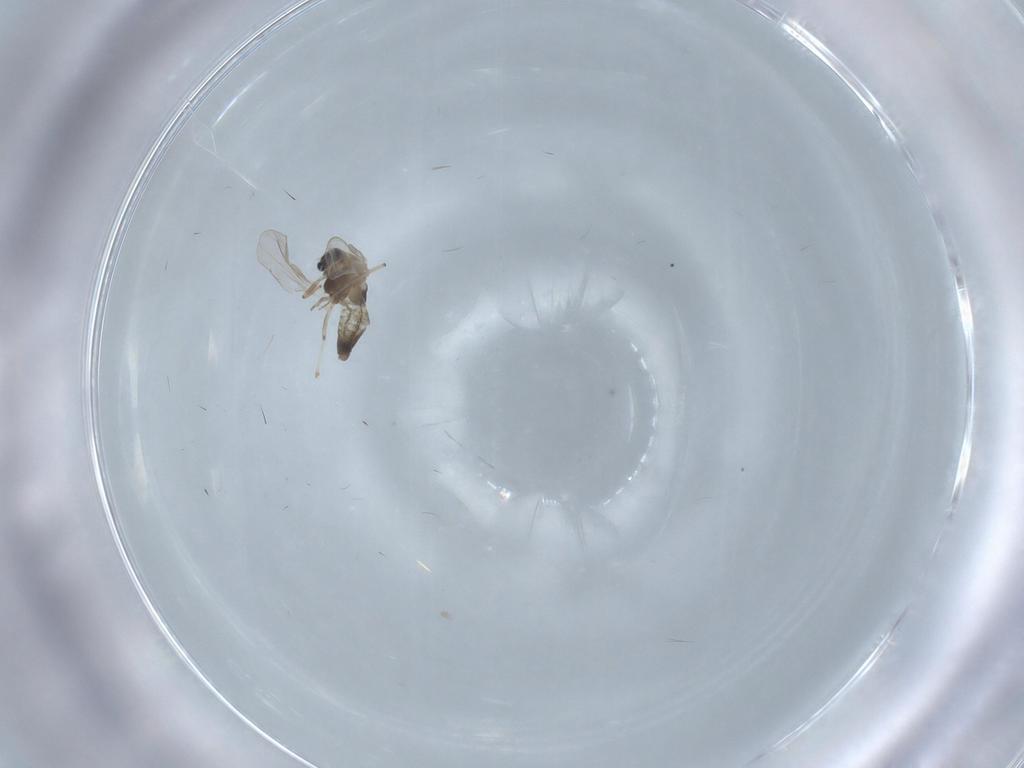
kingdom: Animalia
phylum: Arthropoda
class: Insecta
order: Diptera
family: Chironomidae
